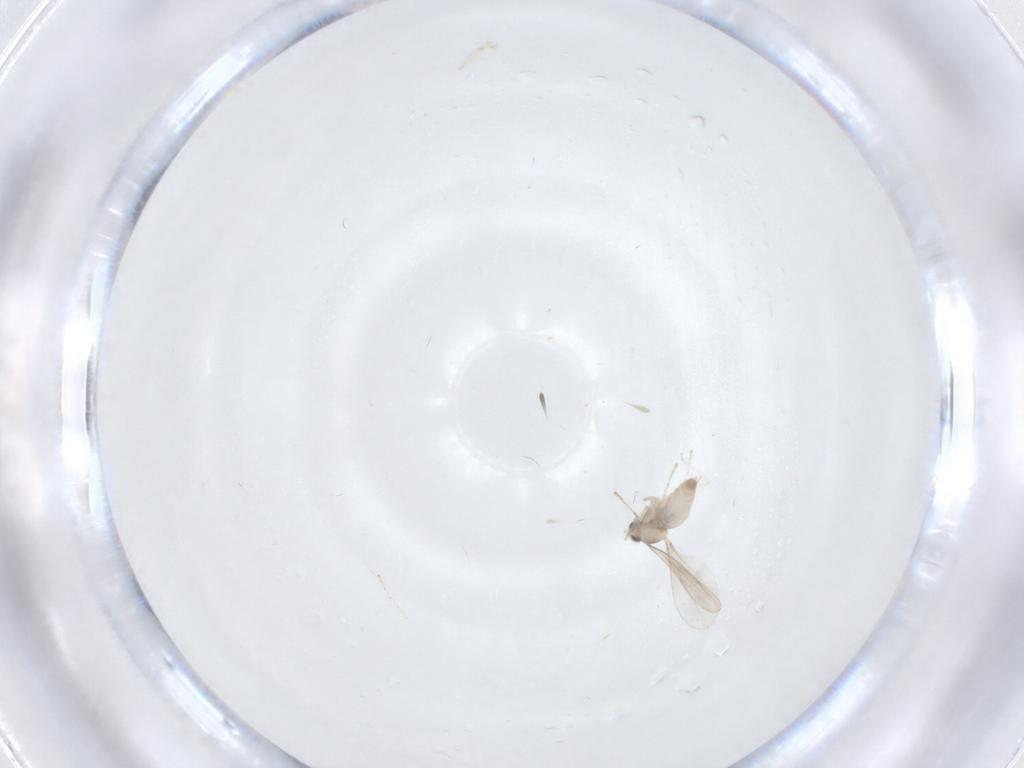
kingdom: Animalia
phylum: Arthropoda
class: Insecta
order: Diptera
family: Cecidomyiidae
